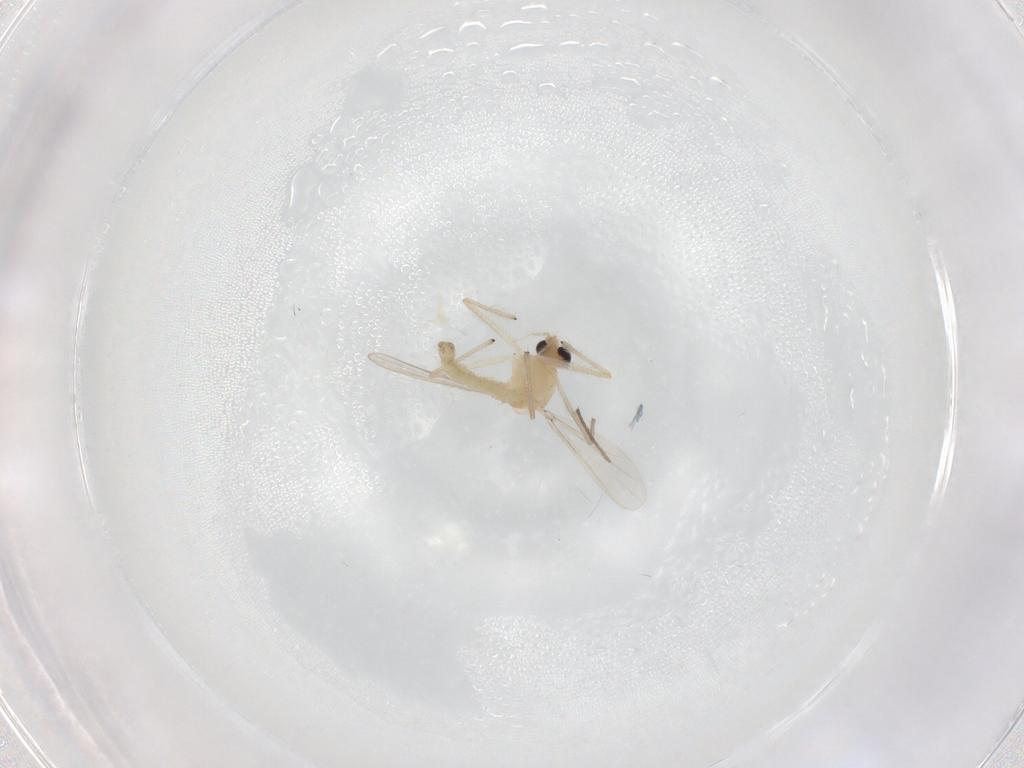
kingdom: Animalia
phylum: Arthropoda
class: Insecta
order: Diptera
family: Chironomidae
